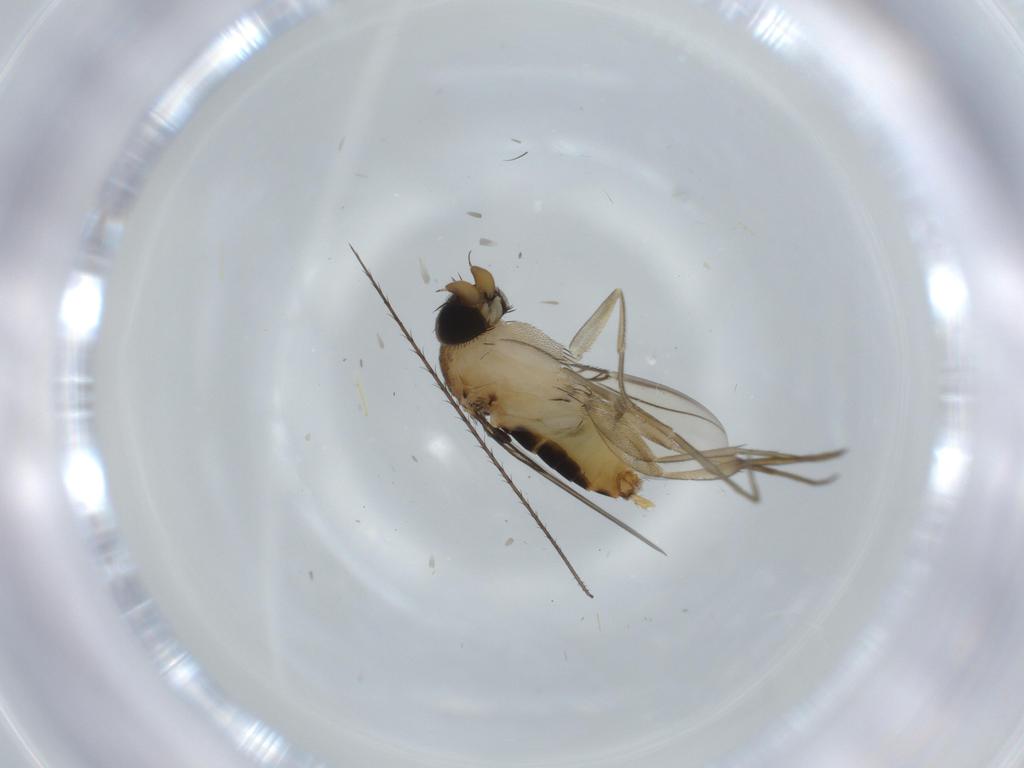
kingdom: Animalia
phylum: Arthropoda
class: Insecta
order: Diptera
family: Phoridae
